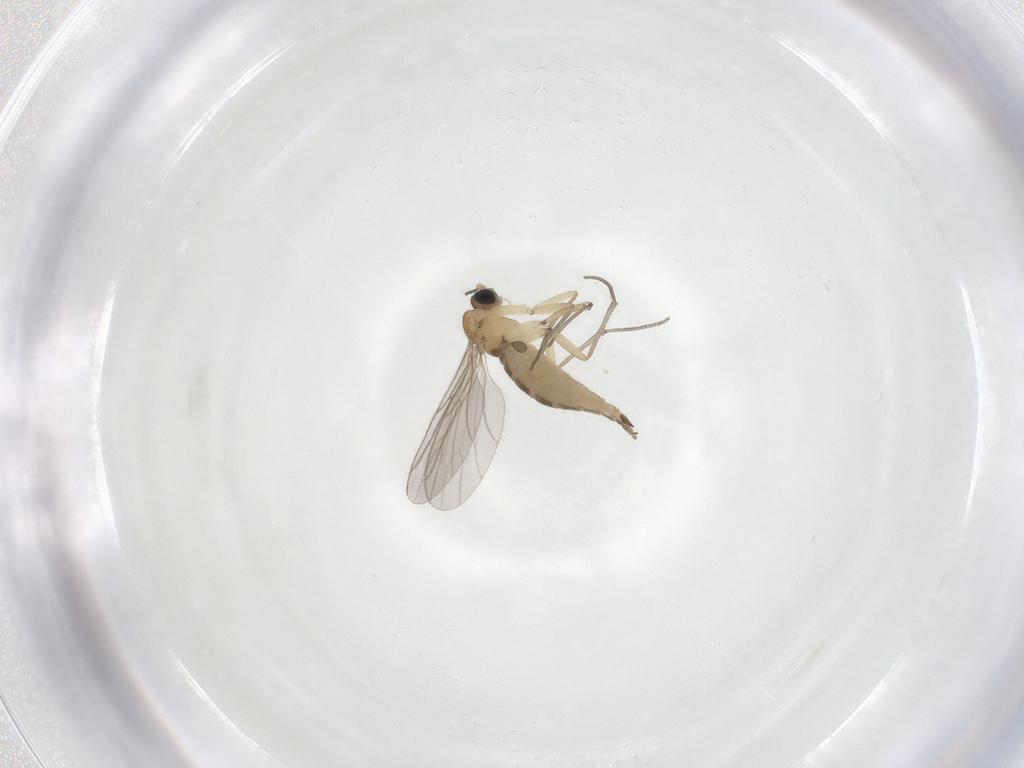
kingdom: Animalia
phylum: Arthropoda
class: Insecta
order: Diptera
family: Sciaridae
